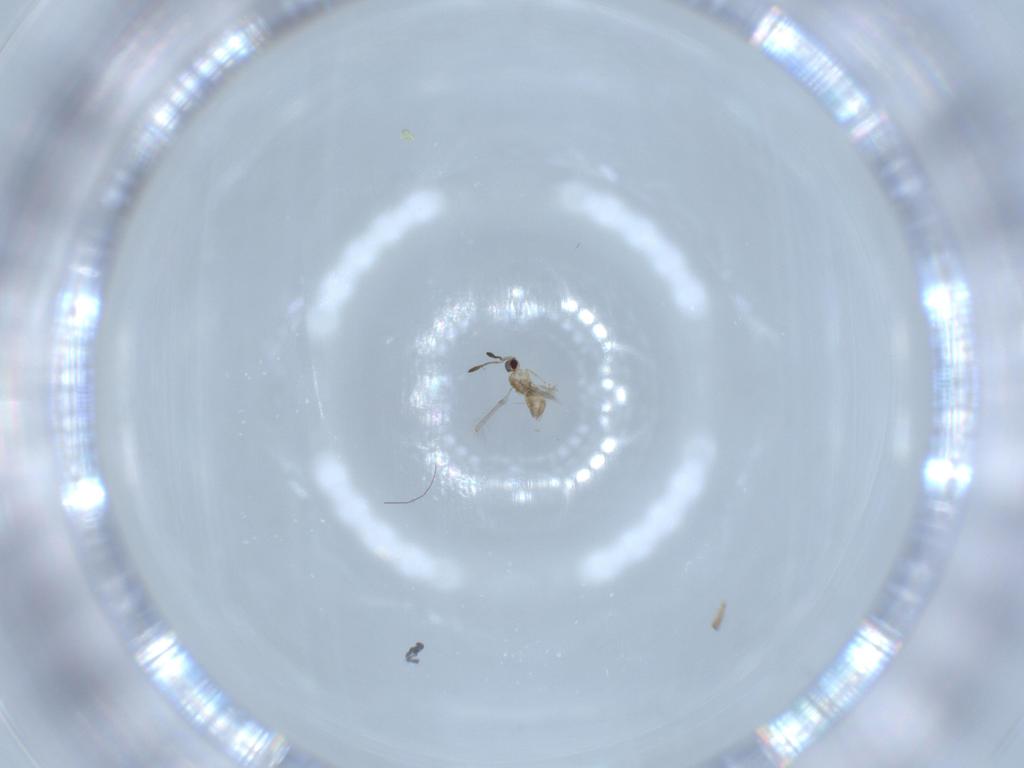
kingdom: Animalia
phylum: Arthropoda
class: Insecta
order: Hymenoptera
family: Mymaridae
